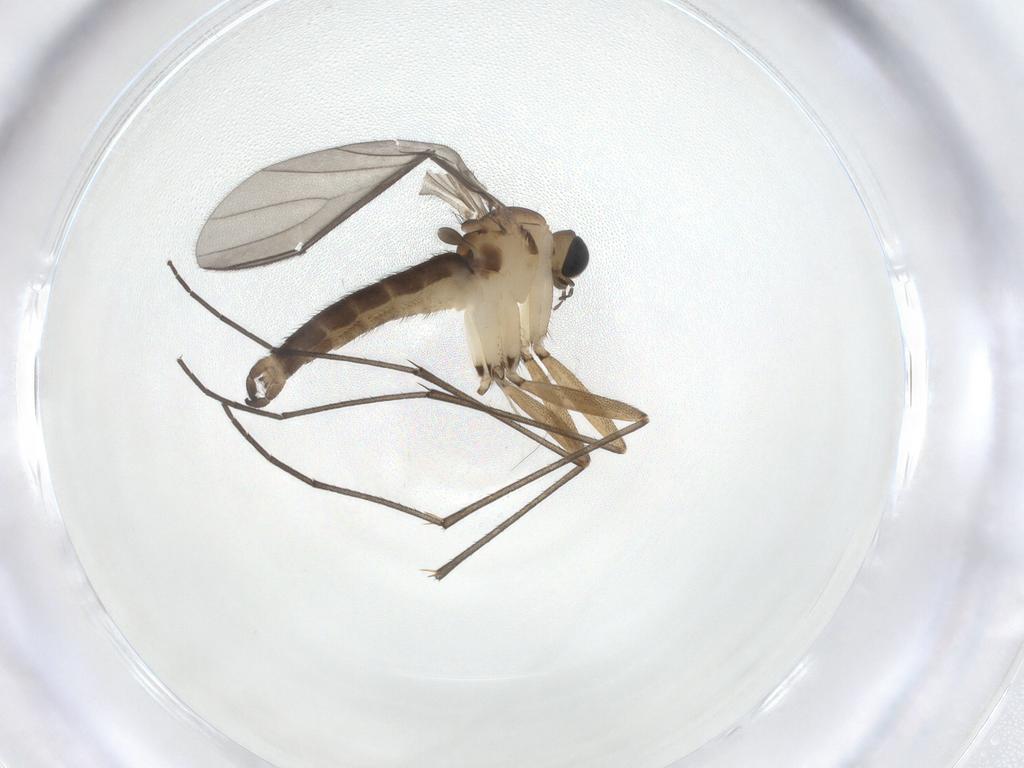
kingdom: Animalia
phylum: Arthropoda
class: Insecta
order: Diptera
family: Sciaridae
